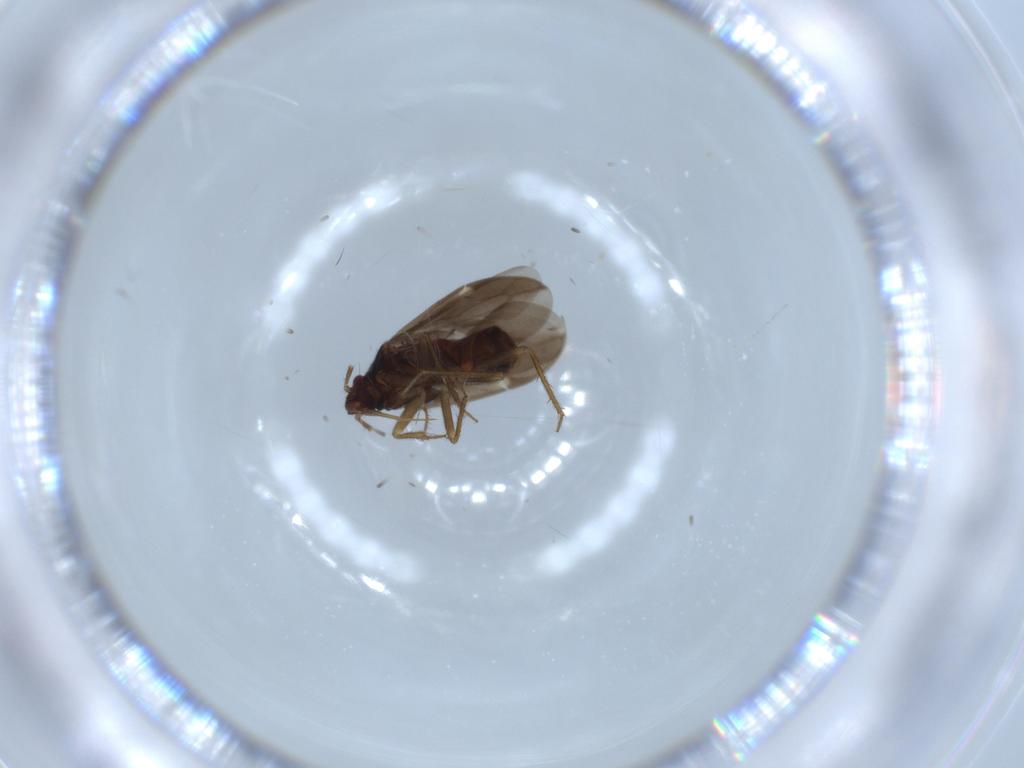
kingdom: Animalia
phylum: Arthropoda
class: Insecta
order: Hemiptera
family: Ceratocombidae
